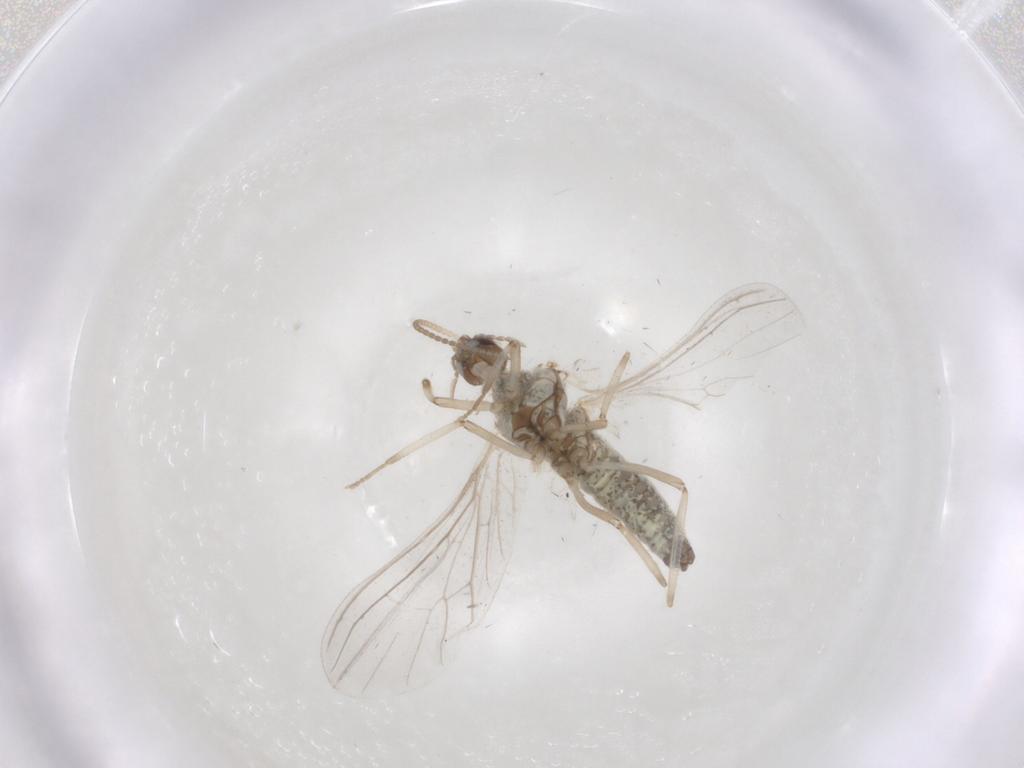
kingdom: Animalia
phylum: Arthropoda
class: Insecta
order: Neuroptera
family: Coniopterygidae
